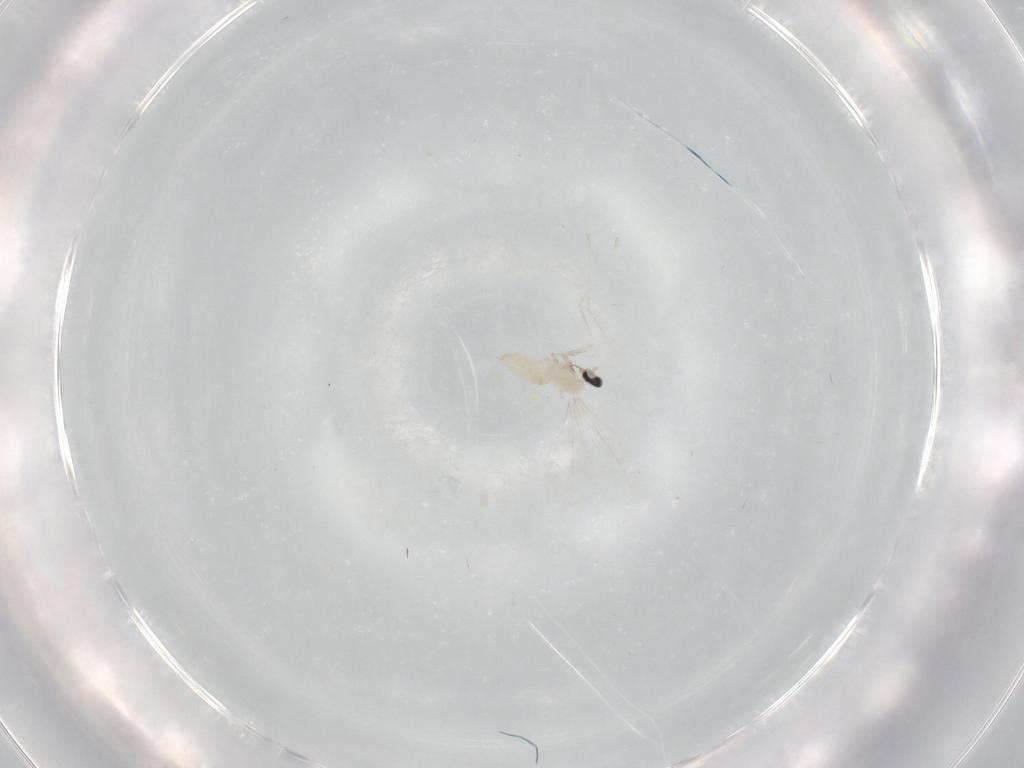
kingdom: Animalia
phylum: Arthropoda
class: Insecta
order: Diptera
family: Cecidomyiidae
